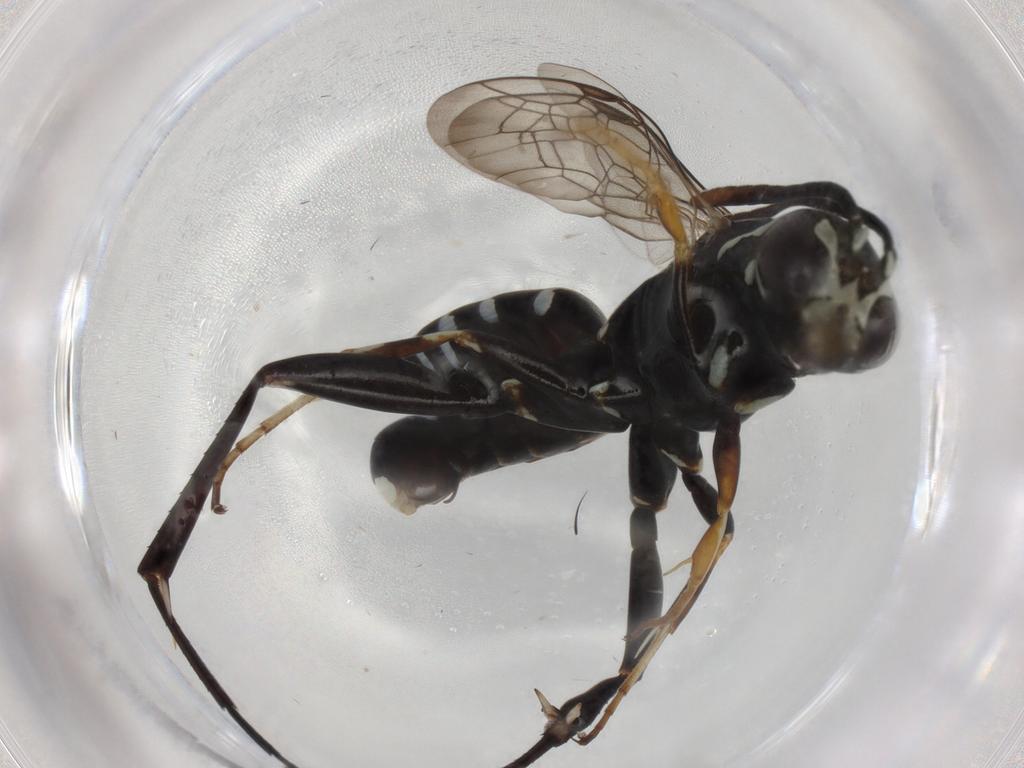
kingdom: Animalia
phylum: Arthropoda
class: Insecta
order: Hymenoptera
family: Pompilidae
